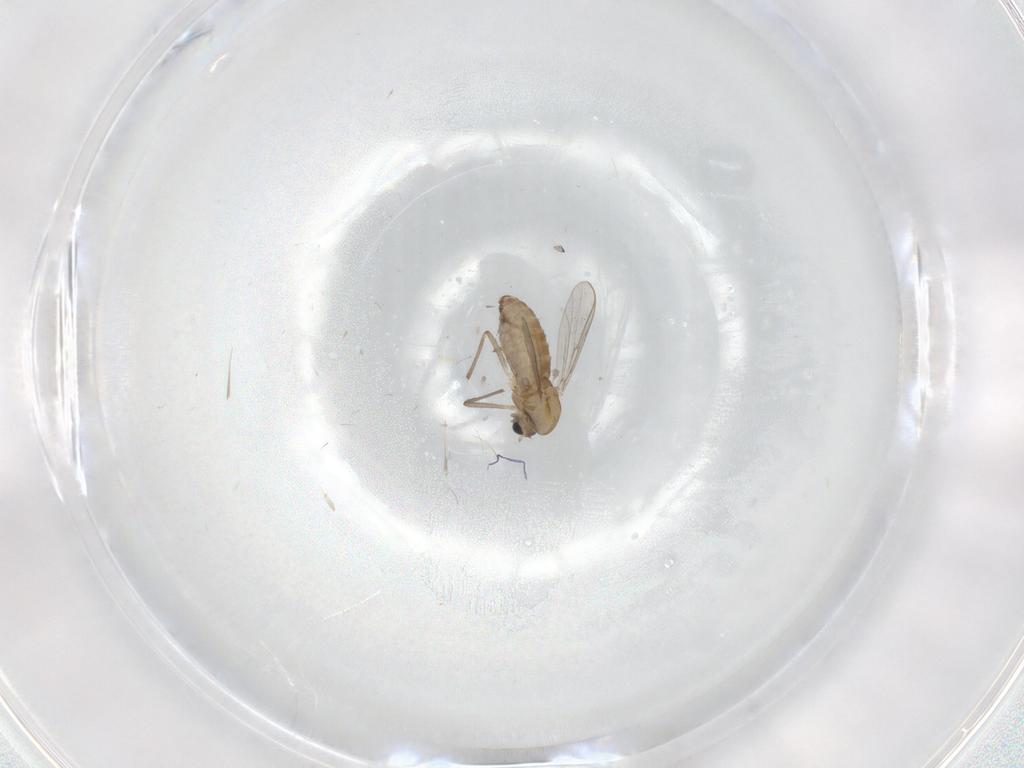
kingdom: Animalia
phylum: Arthropoda
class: Insecta
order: Diptera
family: Chironomidae
